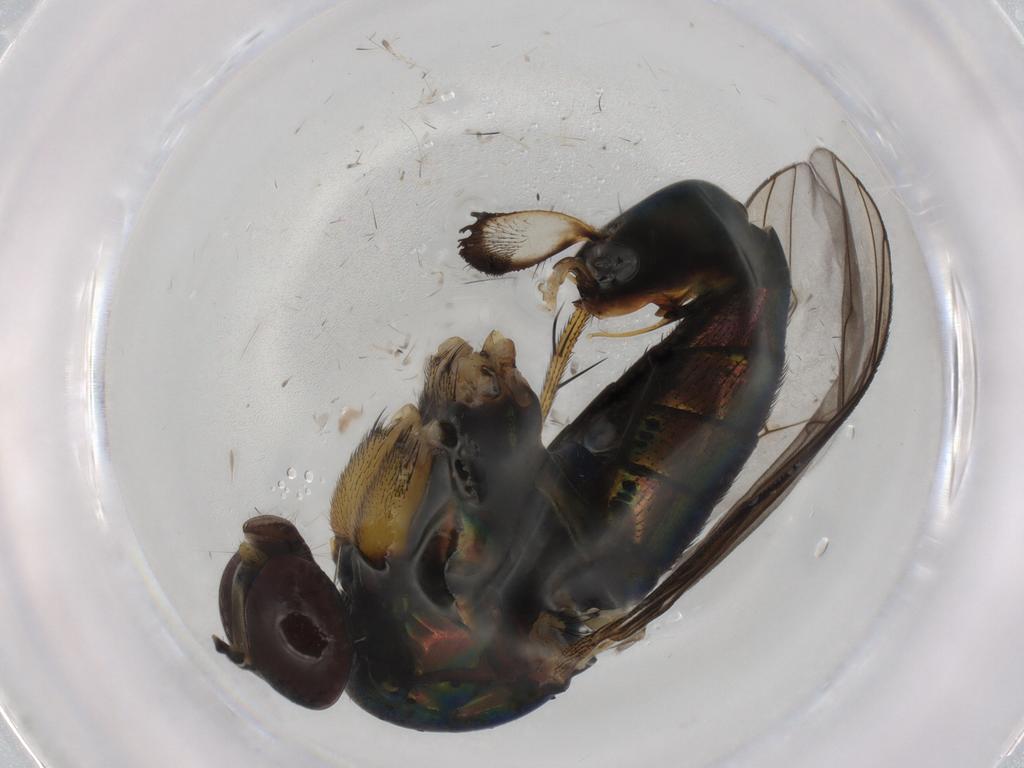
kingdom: Animalia
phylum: Arthropoda
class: Insecta
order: Diptera
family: Dolichopodidae
